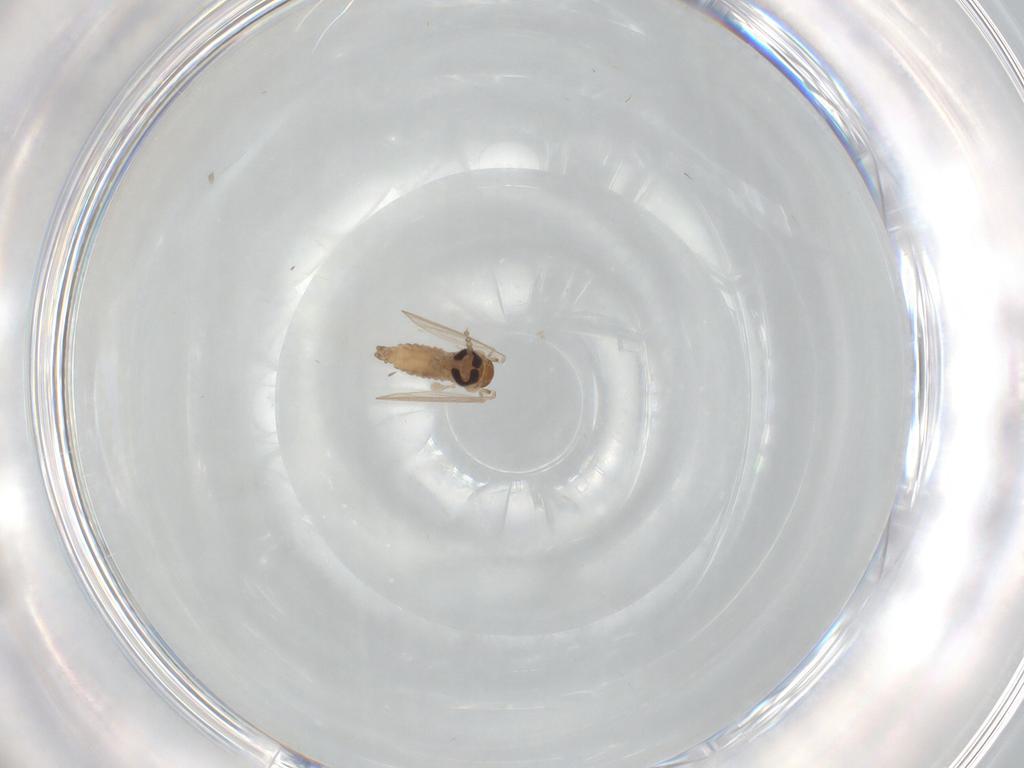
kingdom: Animalia
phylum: Arthropoda
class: Insecta
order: Diptera
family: Psychodidae
